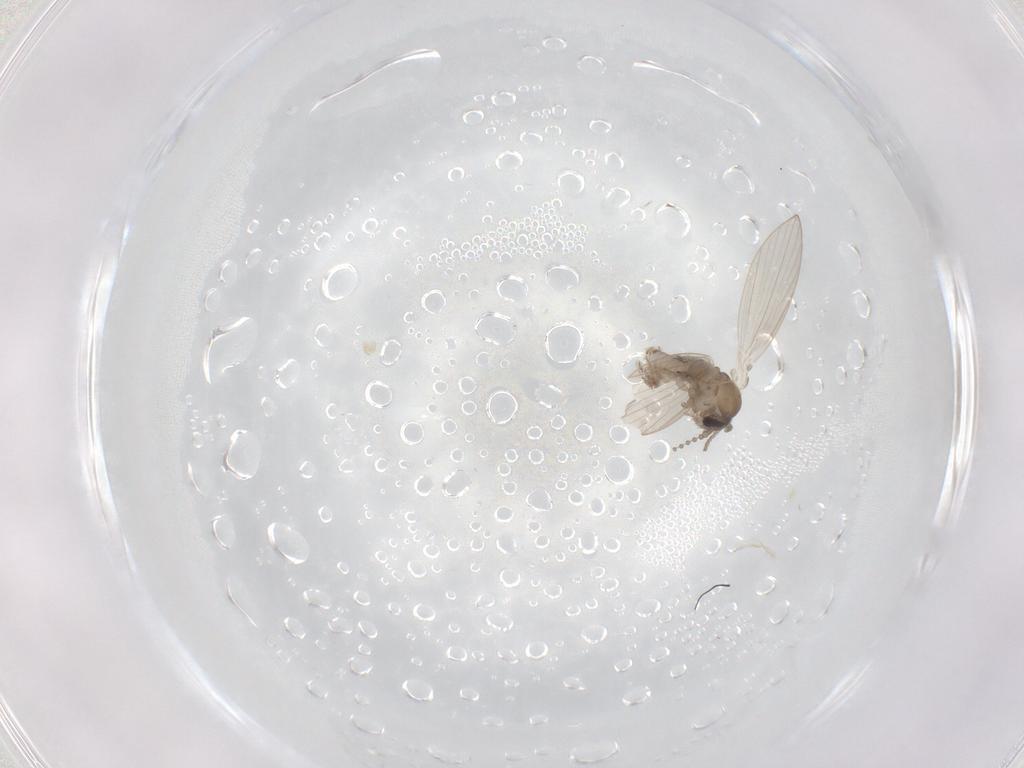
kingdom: Animalia
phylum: Arthropoda
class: Insecta
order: Diptera
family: Psychodidae
